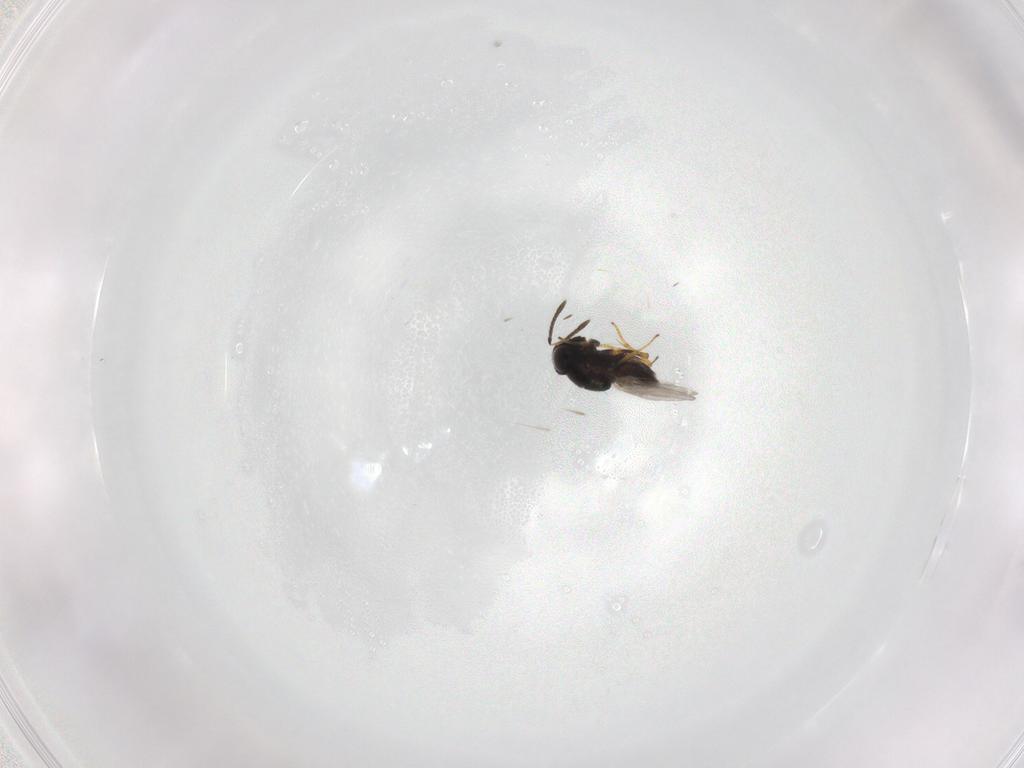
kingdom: Animalia
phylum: Arthropoda
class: Insecta
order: Hymenoptera
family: Encyrtidae
